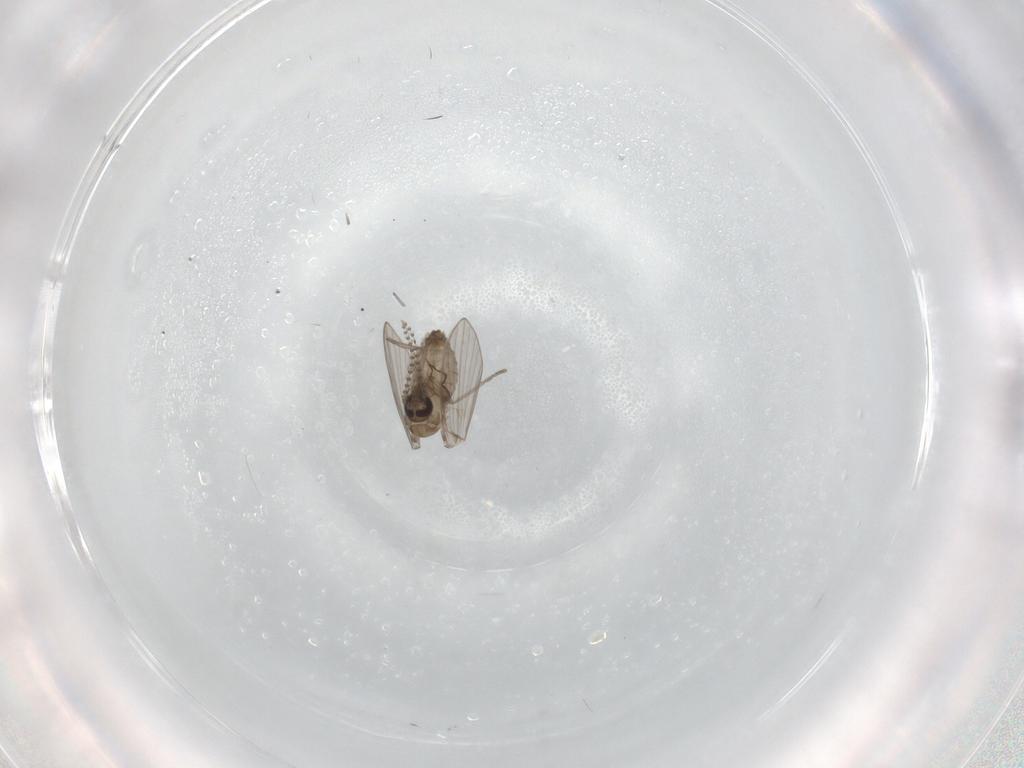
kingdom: Animalia
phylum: Arthropoda
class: Insecta
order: Diptera
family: Psychodidae
